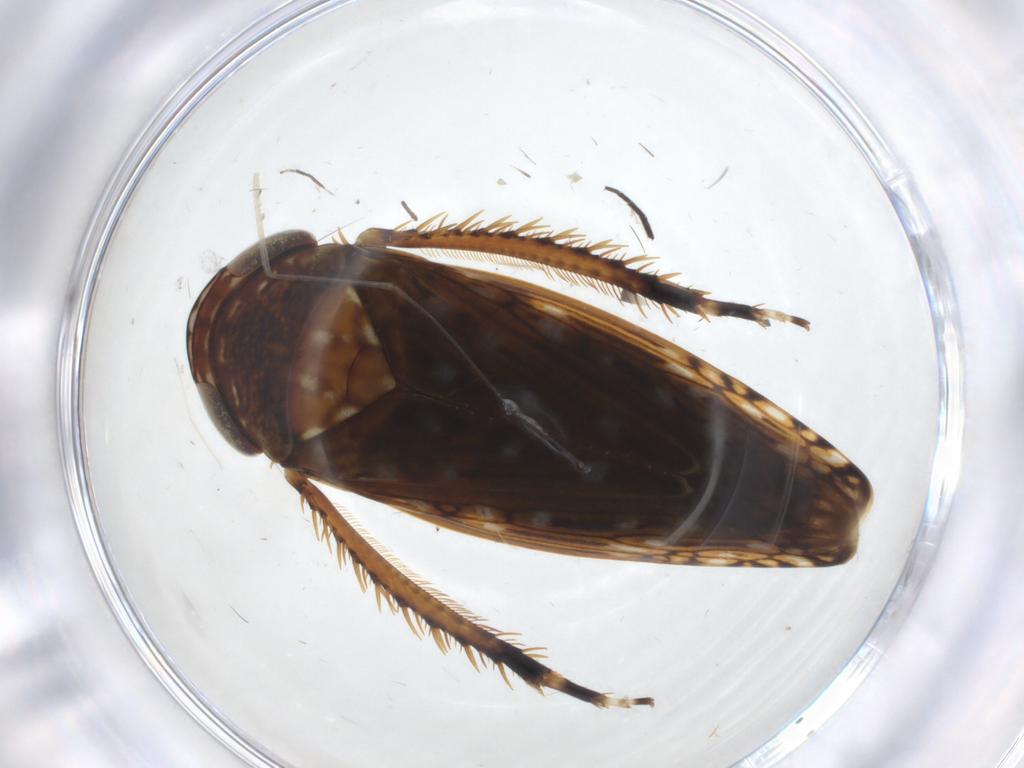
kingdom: Animalia
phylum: Arthropoda
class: Insecta
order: Hemiptera
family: Cicadellidae
